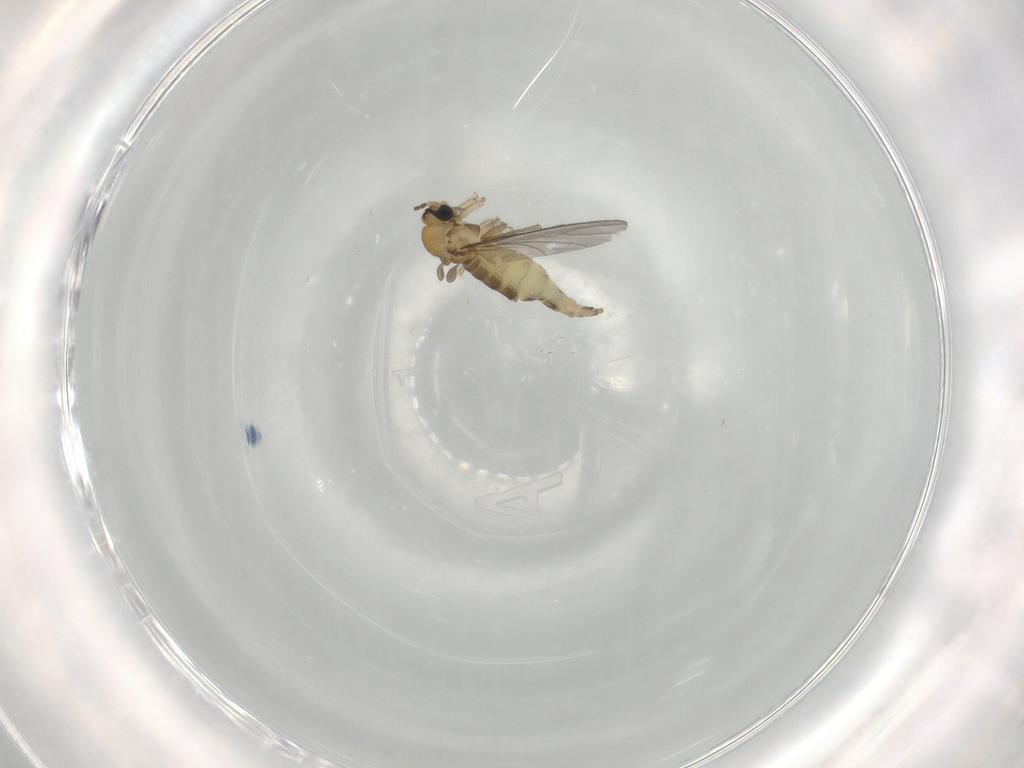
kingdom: Animalia
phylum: Arthropoda
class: Insecta
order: Diptera
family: Sciaridae
